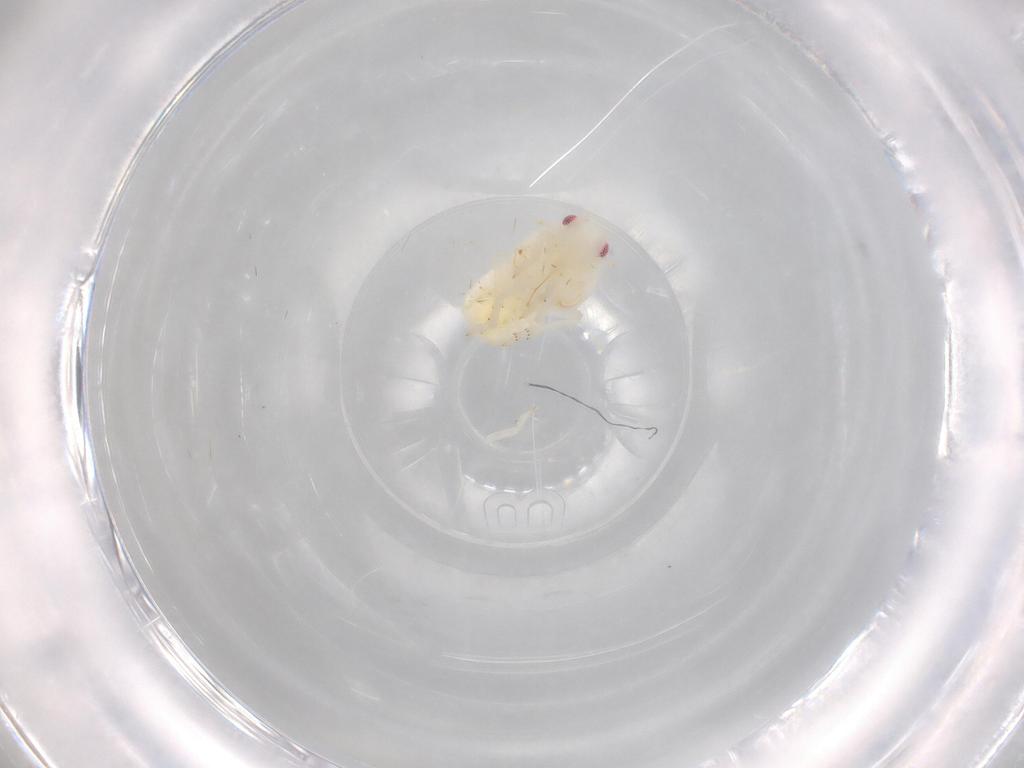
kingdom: Animalia
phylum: Arthropoda
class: Insecta
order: Hemiptera
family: Flatidae
